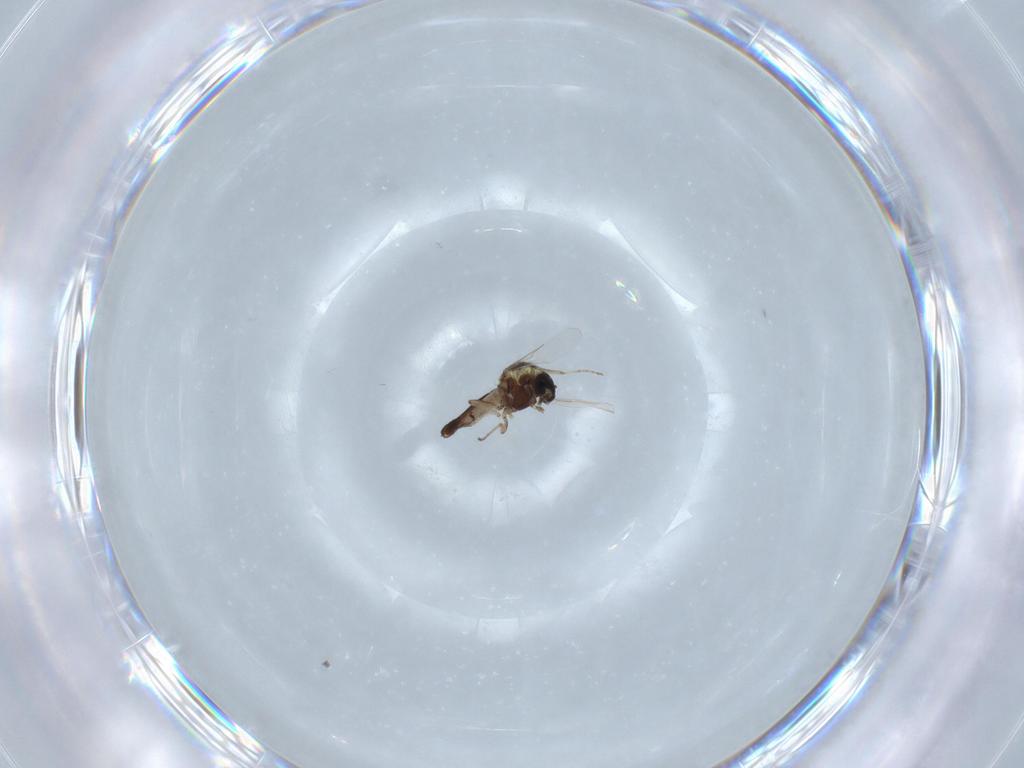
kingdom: Animalia
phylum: Arthropoda
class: Insecta
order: Diptera
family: Ceratopogonidae
